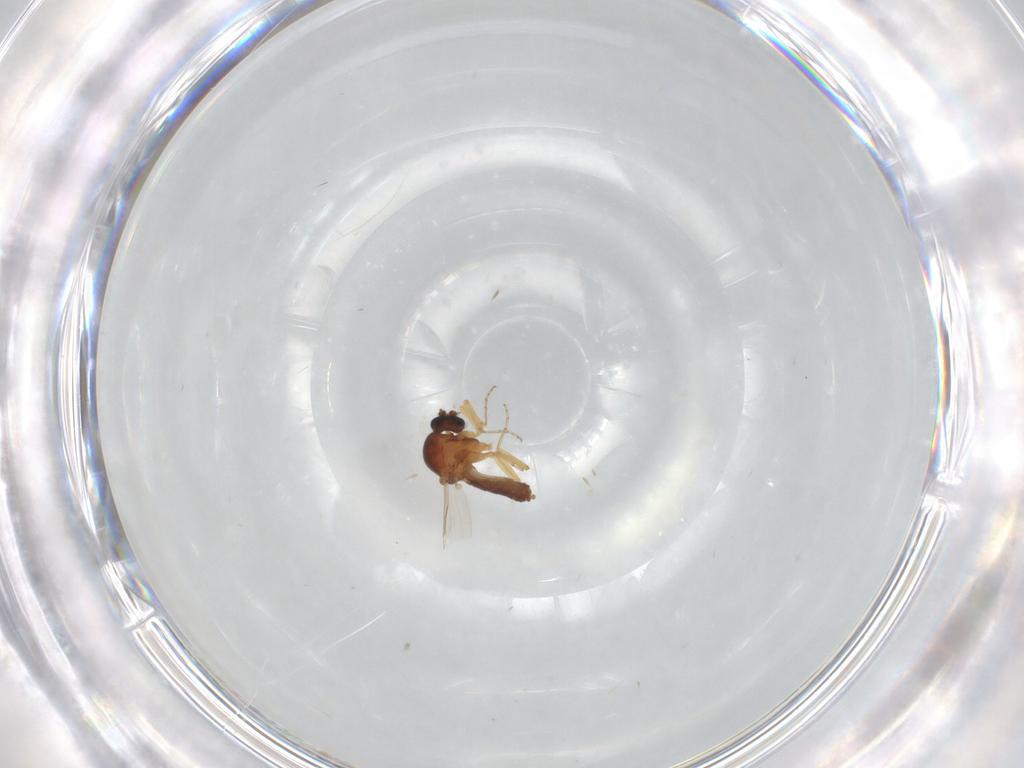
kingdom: Animalia
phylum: Arthropoda
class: Insecta
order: Diptera
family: Ceratopogonidae
